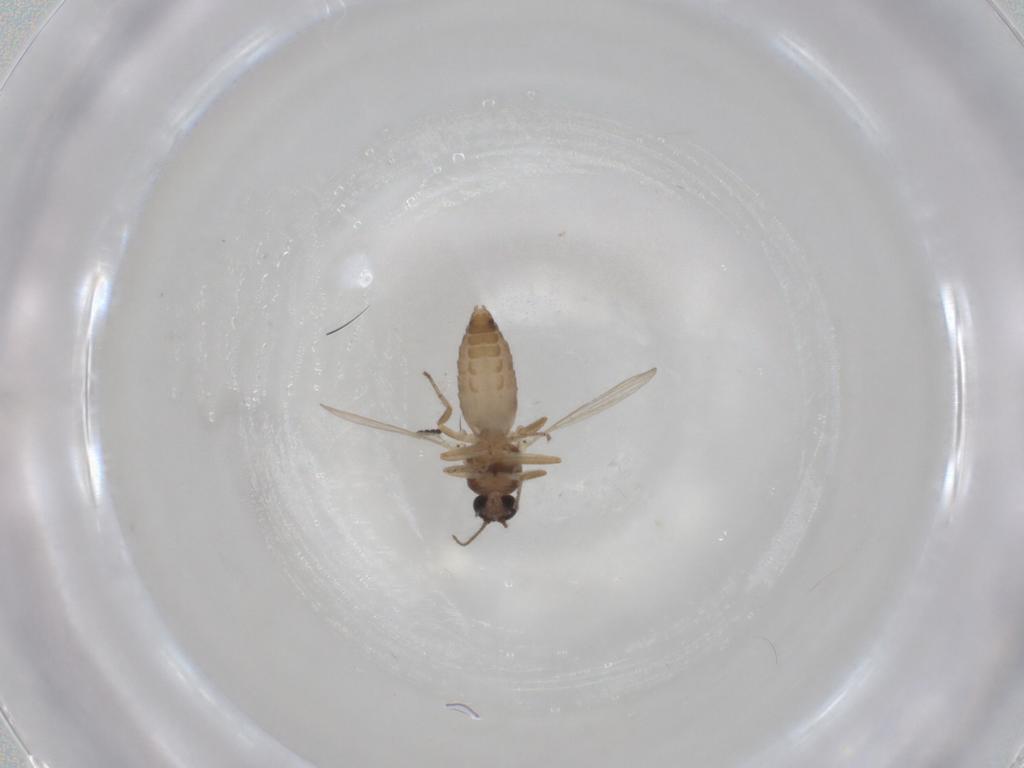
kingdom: Animalia
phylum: Arthropoda
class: Insecta
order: Diptera
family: Ceratopogonidae
